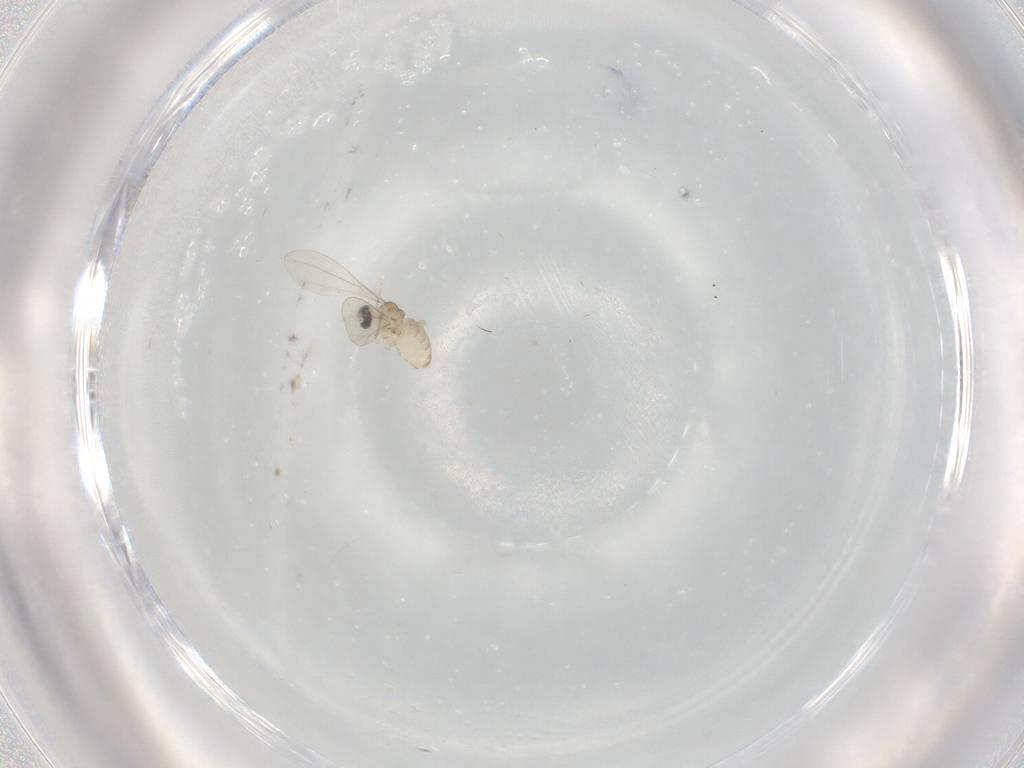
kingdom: Animalia
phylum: Arthropoda
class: Insecta
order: Diptera
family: Cecidomyiidae
